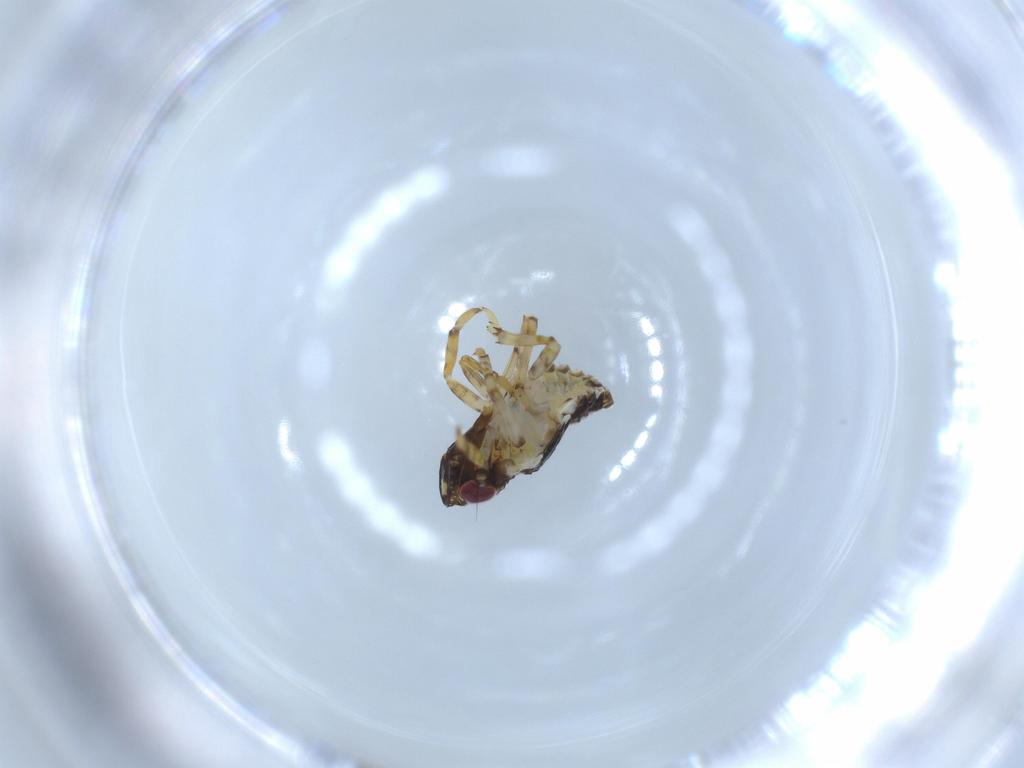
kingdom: Animalia
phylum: Arthropoda
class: Insecta
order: Hemiptera
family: Issidae
